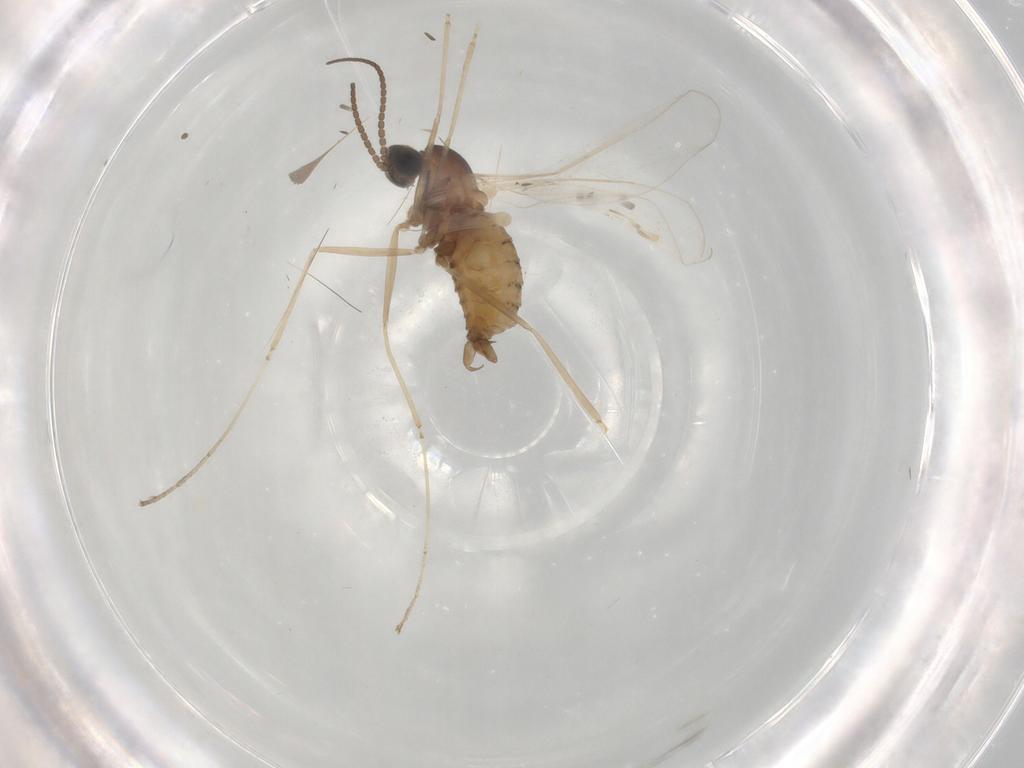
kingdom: Animalia
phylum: Arthropoda
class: Insecta
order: Diptera
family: Cecidomyiidae
